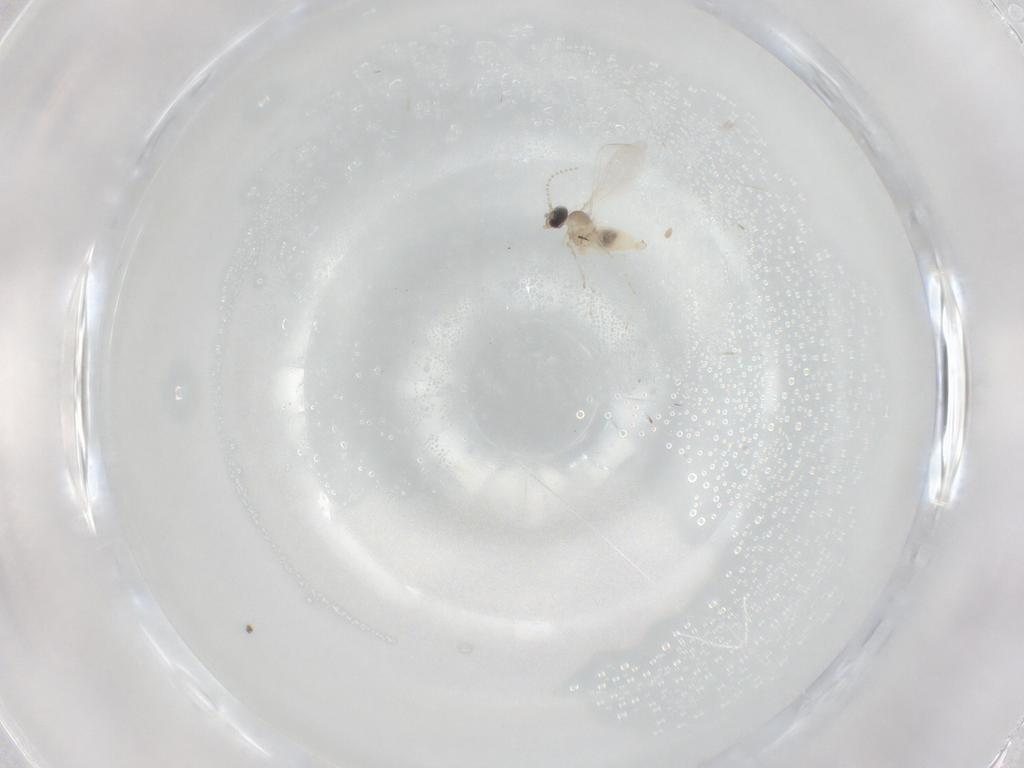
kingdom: Animalia
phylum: Arthropoda
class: Insecta
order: Diptera
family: Cecidomyiidae
